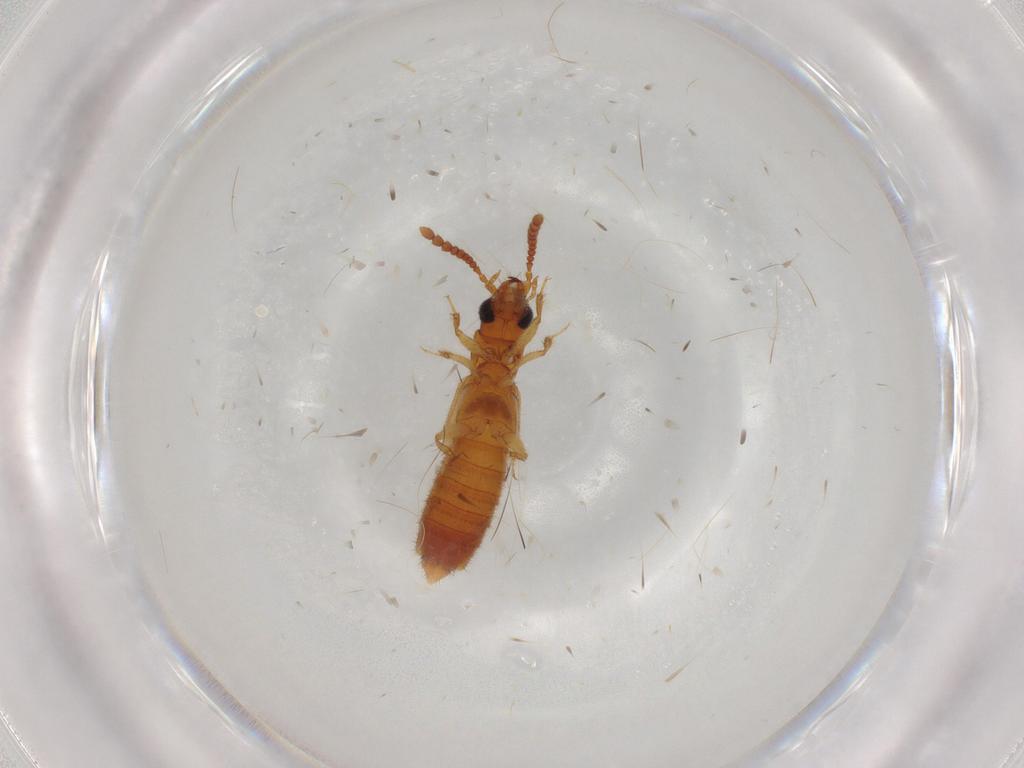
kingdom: Animalia
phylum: Arthropoda
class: Insecta
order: Coleoptera
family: Staphylinidae
